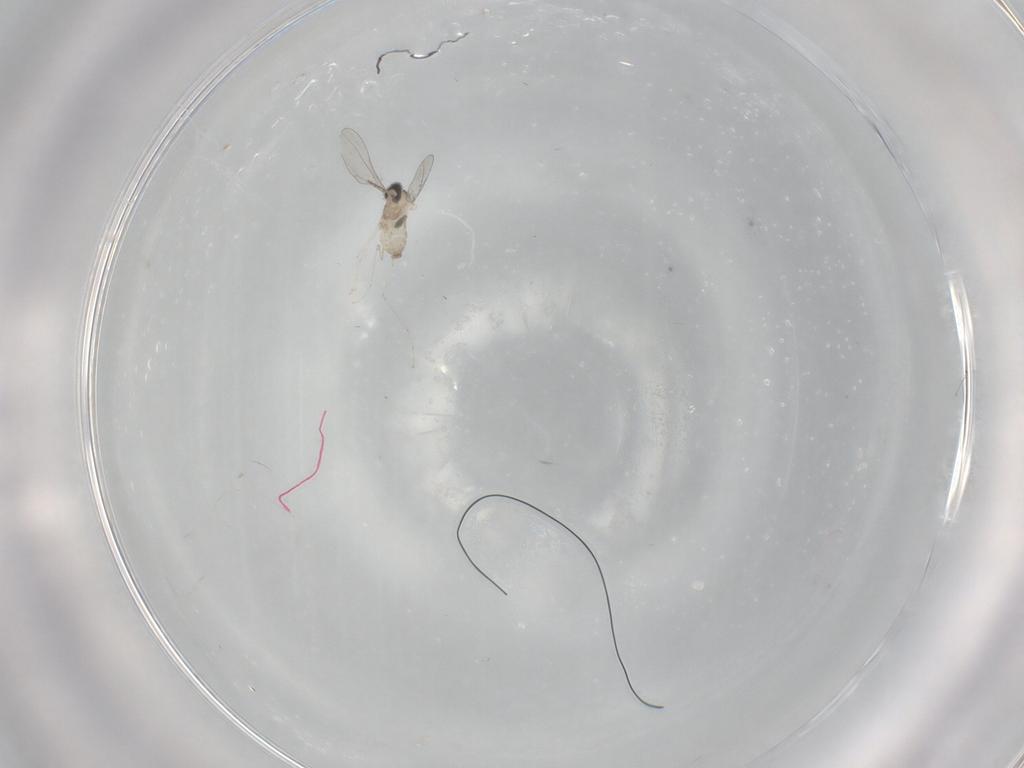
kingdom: Animalia
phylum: Arthropoda
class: Insecta
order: Diptera
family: Cecidomyiidae
